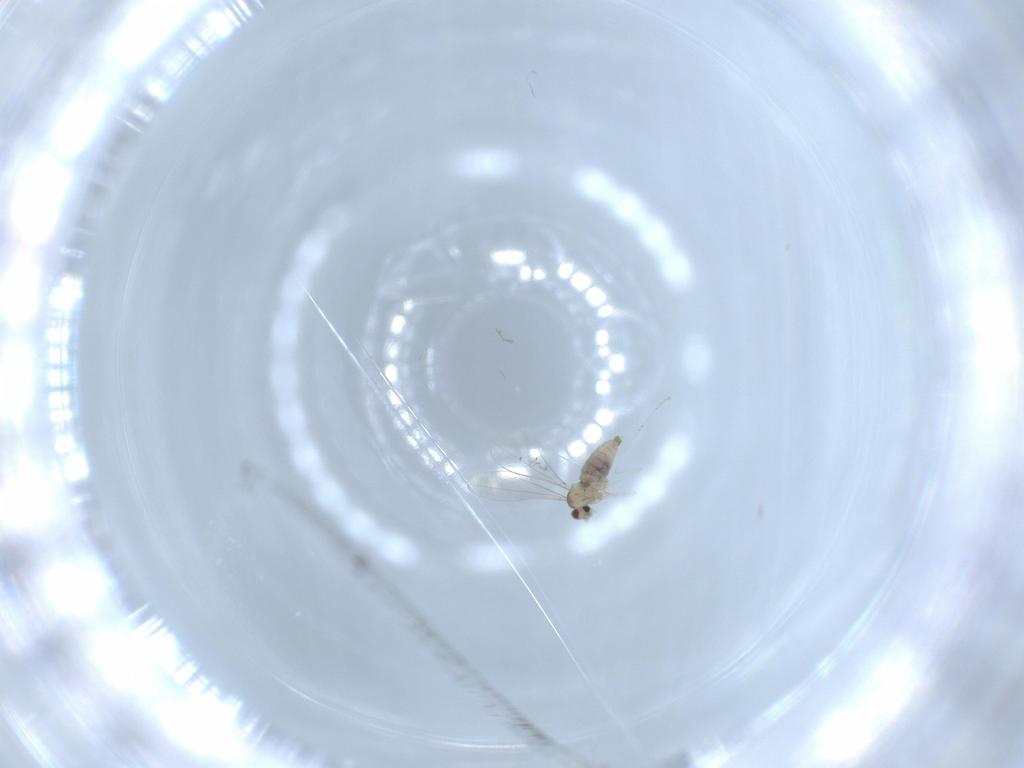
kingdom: Animalia
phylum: Arthropoda
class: Insecta
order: Diptera
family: Cecidomyiidae
